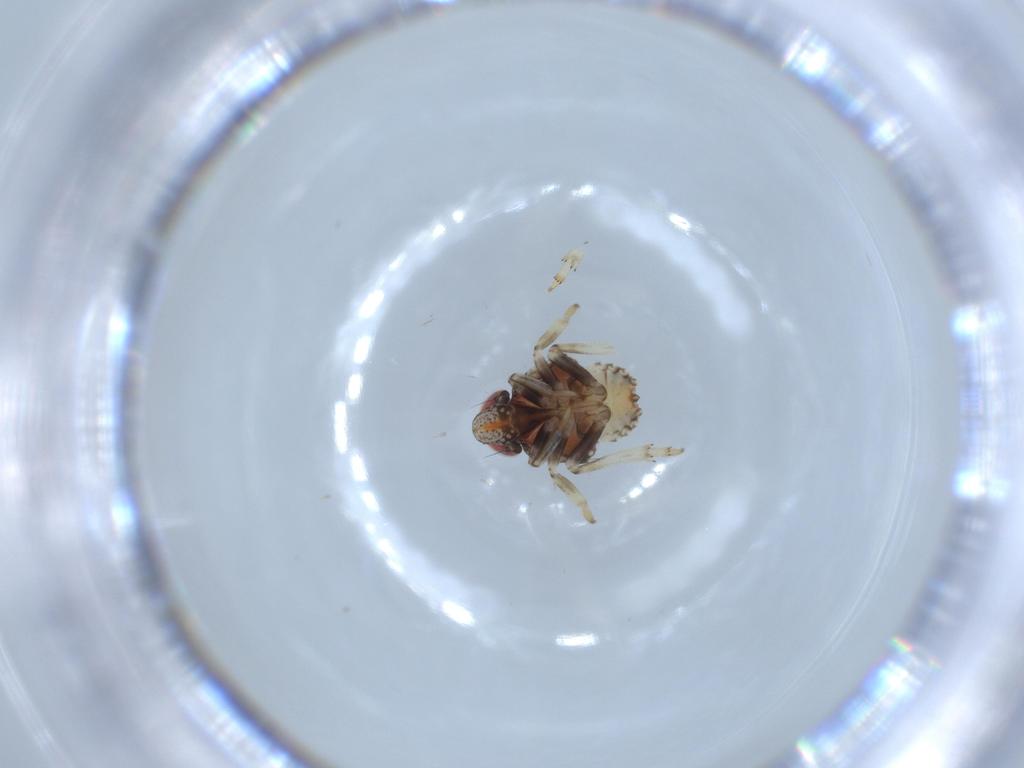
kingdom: Animalia
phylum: Arthropoda
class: Insecta
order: Hemiptera
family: Issidae
